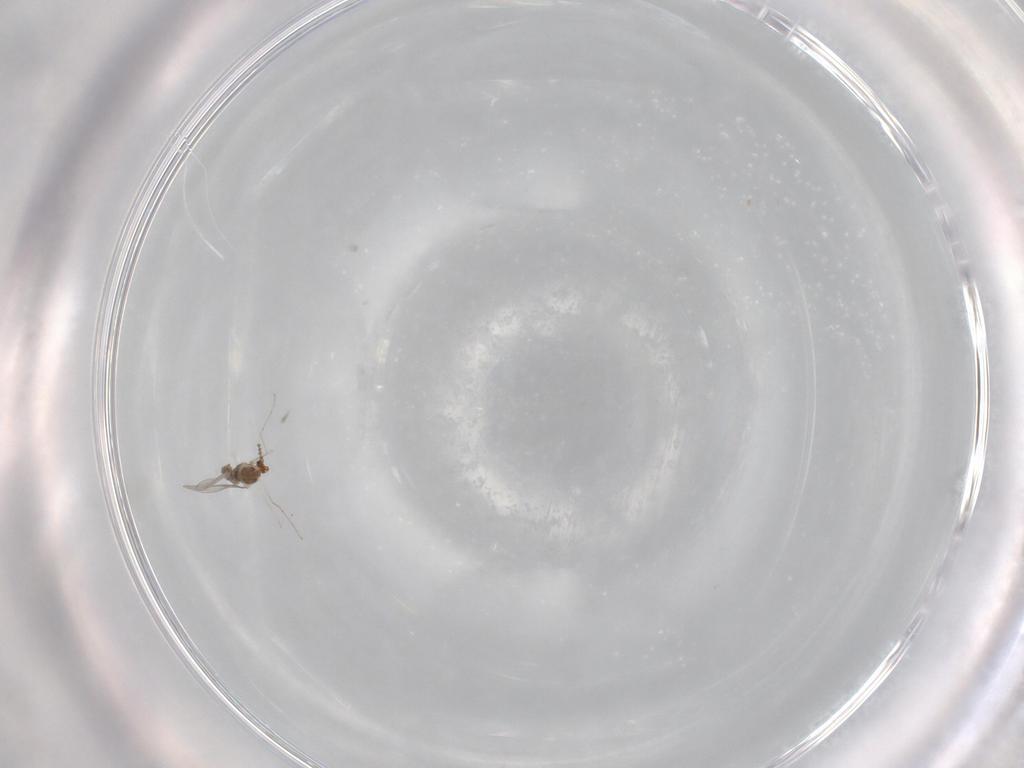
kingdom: Animalia
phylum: Arthropoda
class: Insecta
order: Diptera
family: Cecidomyiidae
